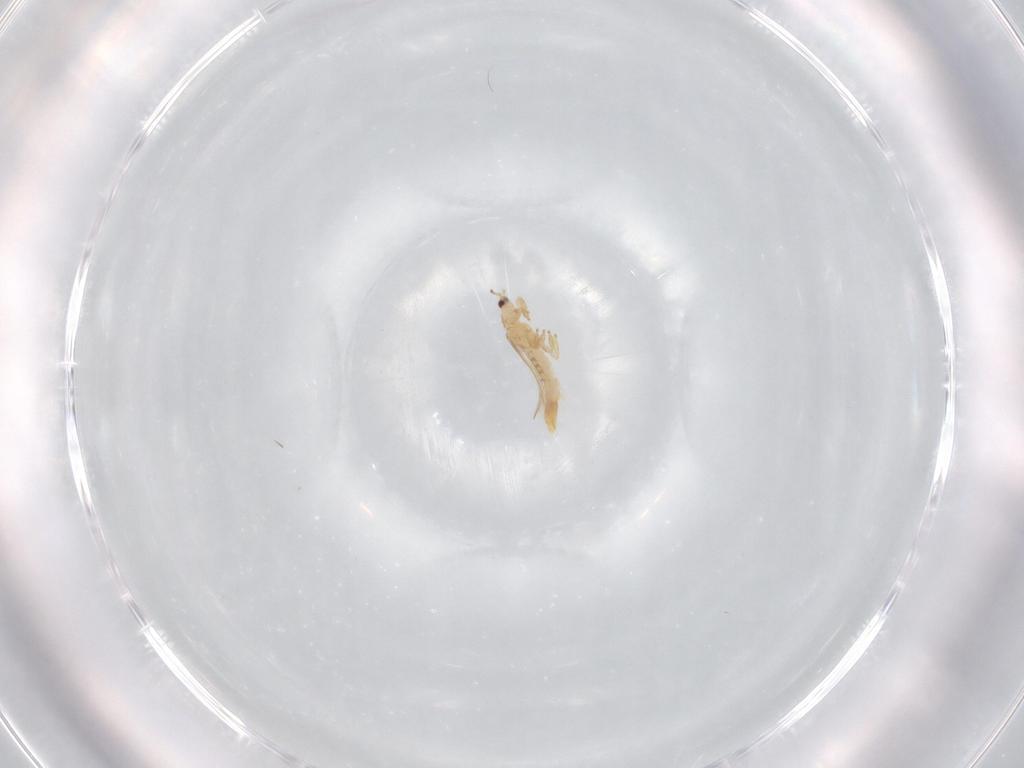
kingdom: Animalia
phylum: Arthropoda
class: Insecta
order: Thysanoptera
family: Thripidae
